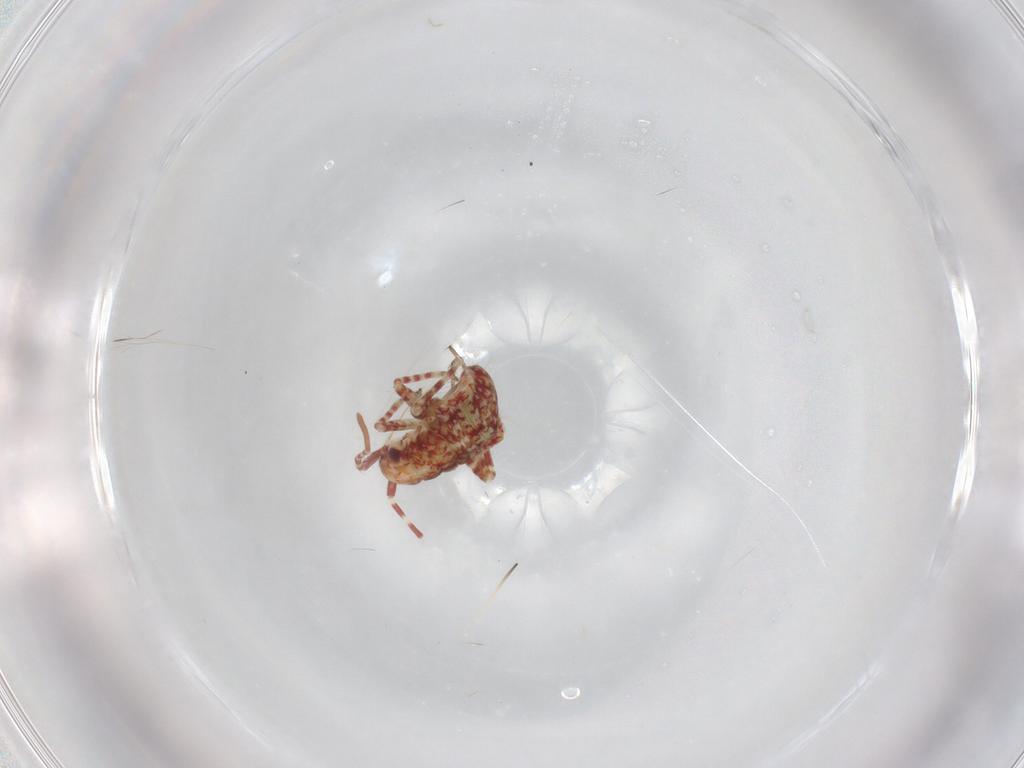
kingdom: Animalia
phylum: Arthropoda
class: Insecta
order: Hemiptera
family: Miridae
